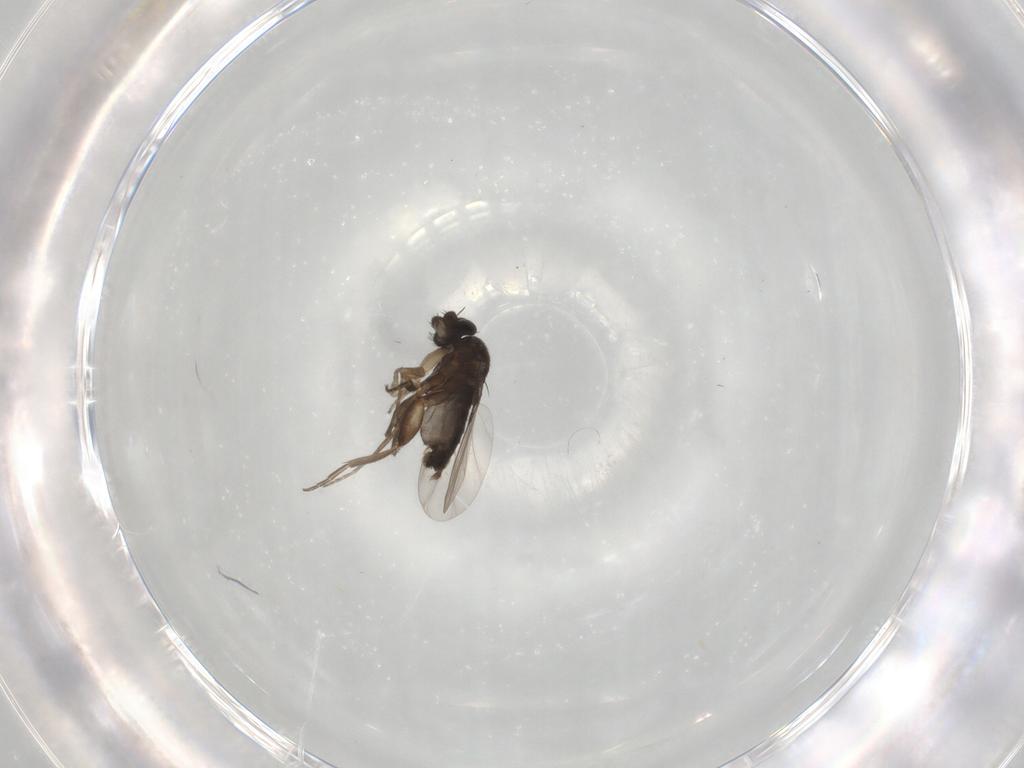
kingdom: Animalia
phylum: Arthropoda
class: Insecta
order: Diptera
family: Phoridae
